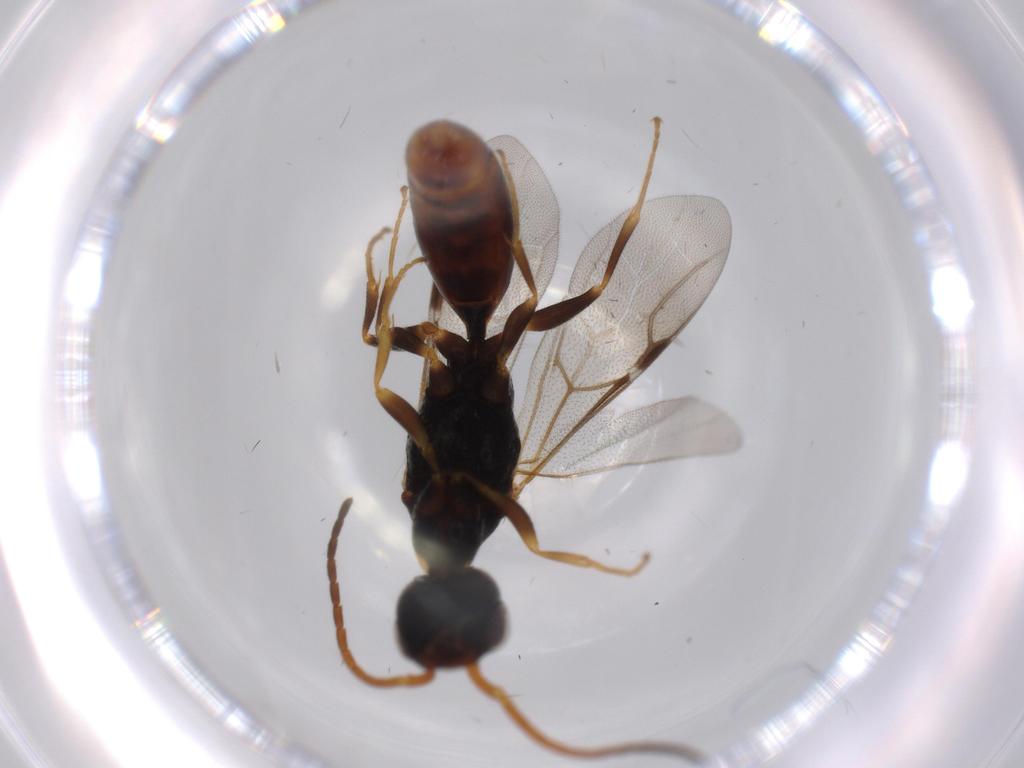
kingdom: Animalia
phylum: Arthropoda
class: Insecta
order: Hymenoptera
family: Bethylidae
